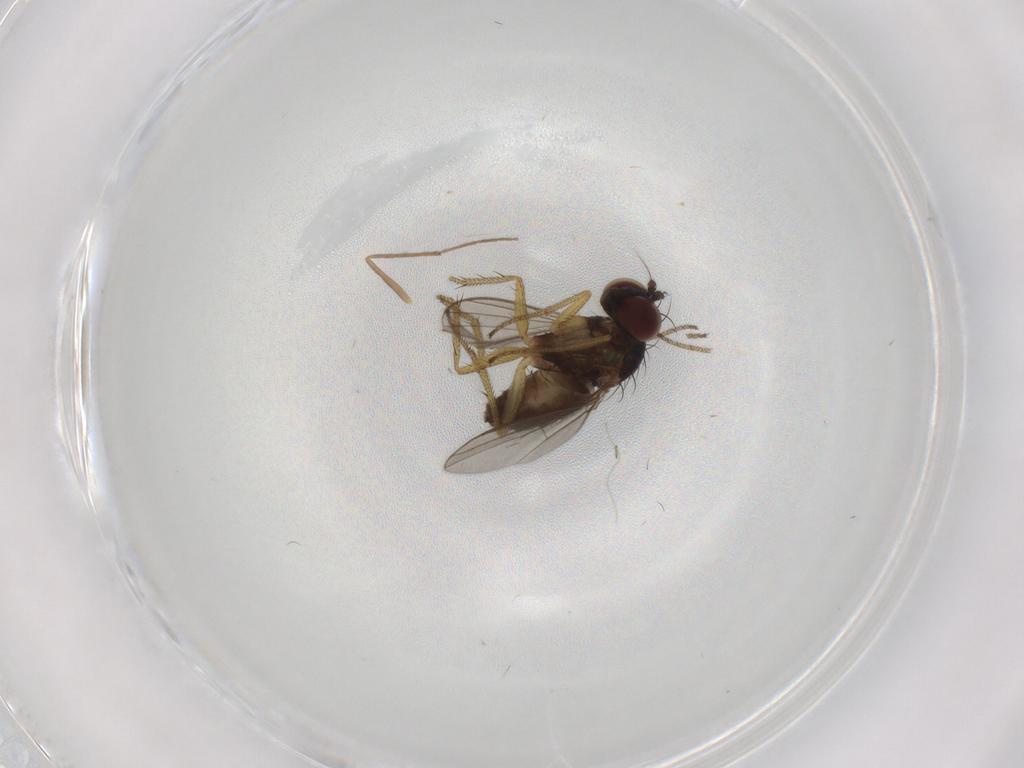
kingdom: Animalia
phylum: Arthropoda
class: Insecta
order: Diptera
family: Chironomidae
